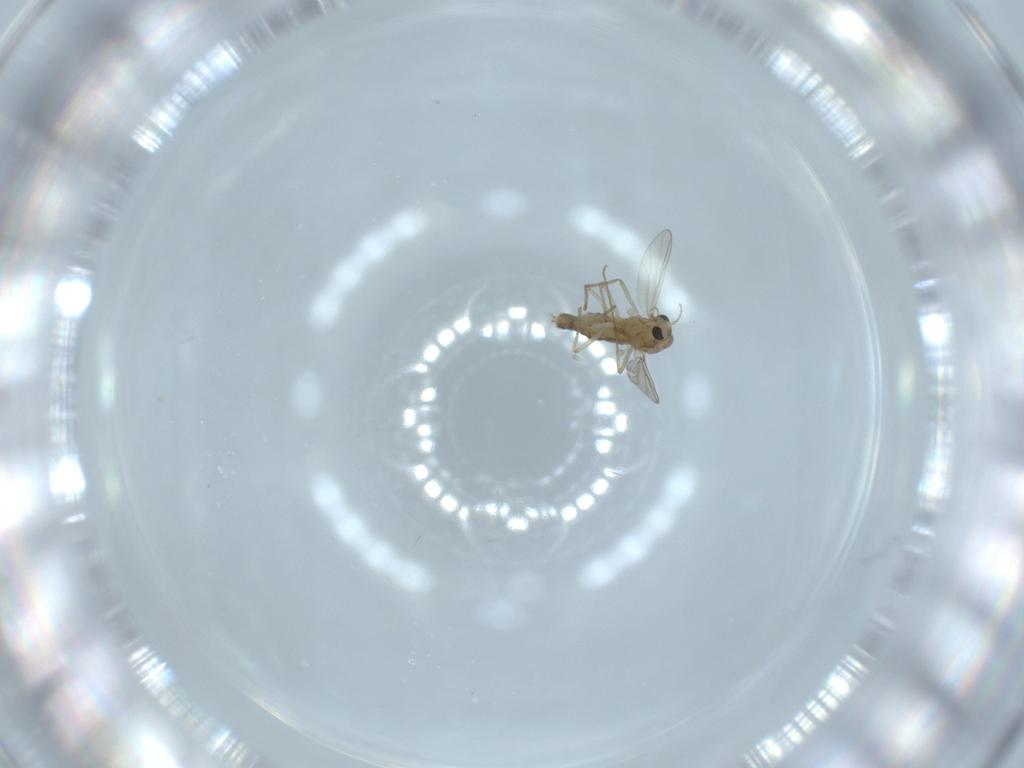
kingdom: Animalia
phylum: Arthropoda
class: Insecta
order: Diptera
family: Chironomidae
